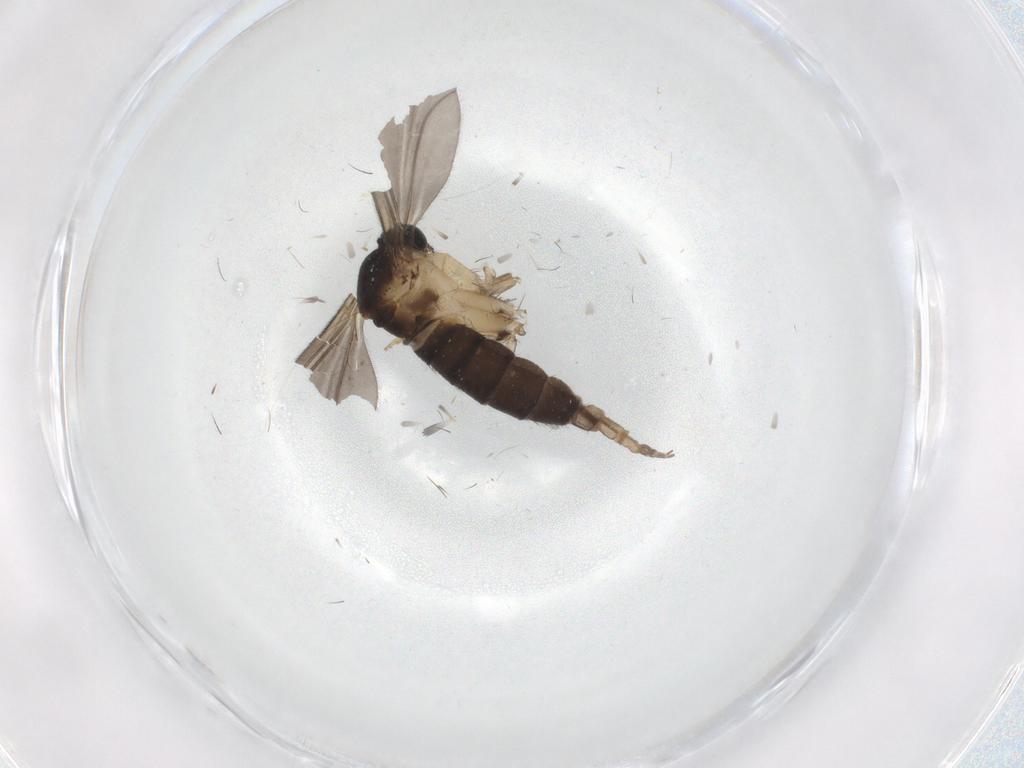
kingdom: Animalia
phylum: Arthropoda
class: Insecta
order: Diptera
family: Sciaridae
